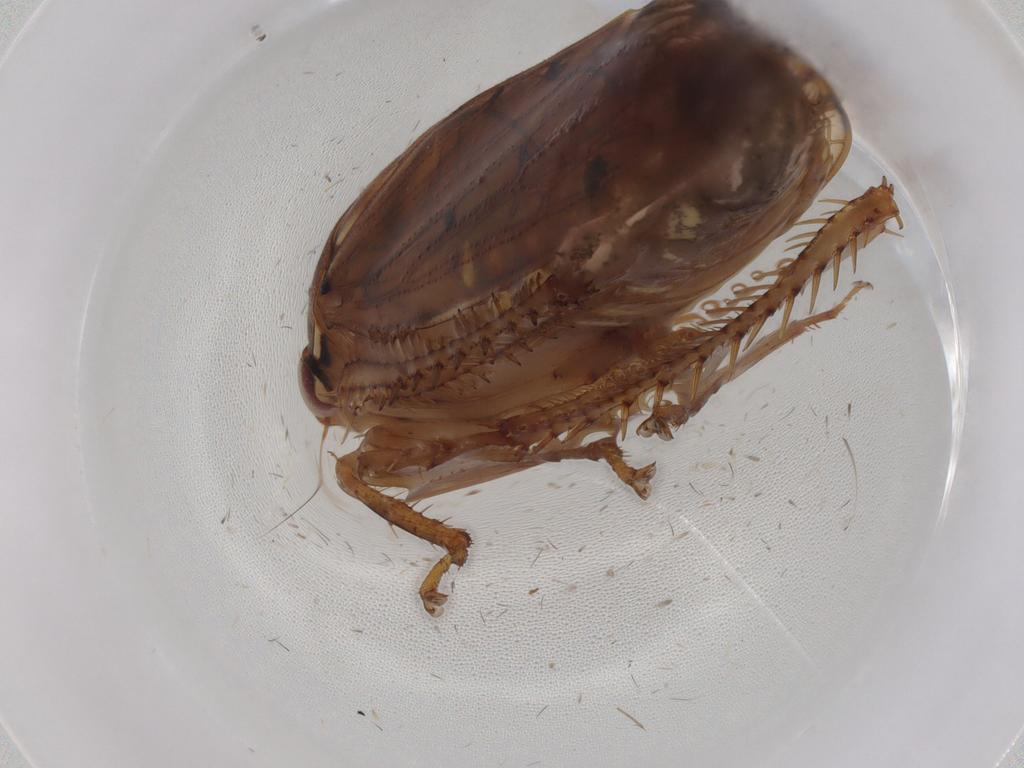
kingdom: Animalia
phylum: Arthropoda
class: Insecta
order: Hemiptera
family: Cicadellidae
